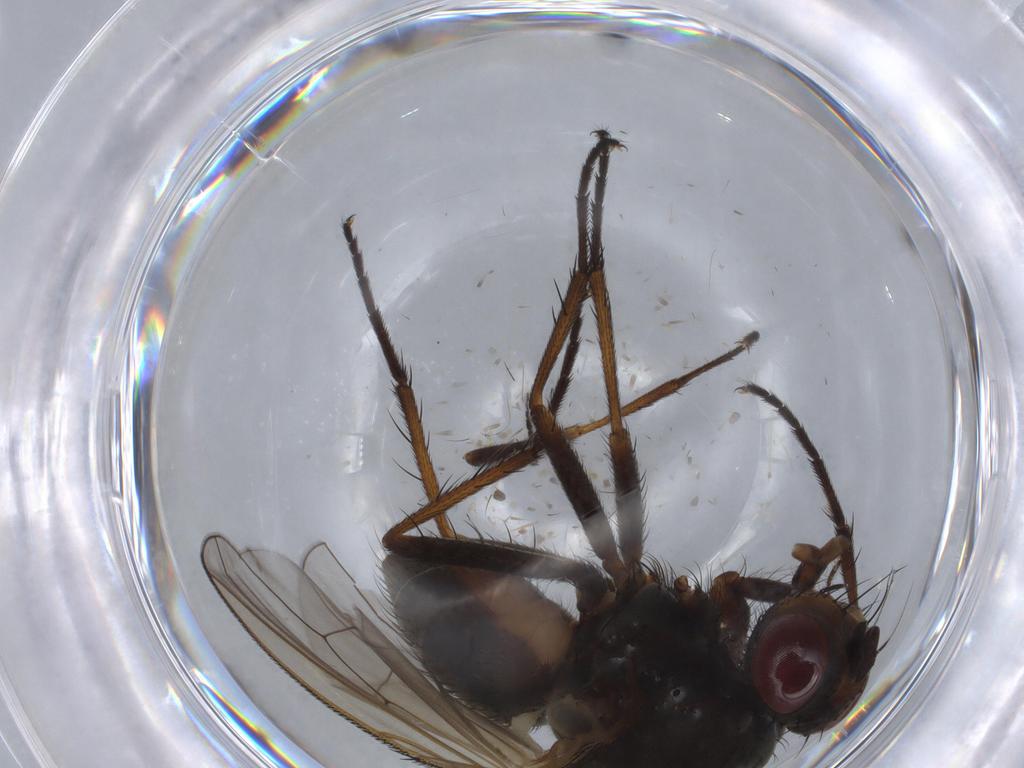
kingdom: Animalia
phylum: Arthropoda
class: Insecta
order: Diptera
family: Anthomyiidae
